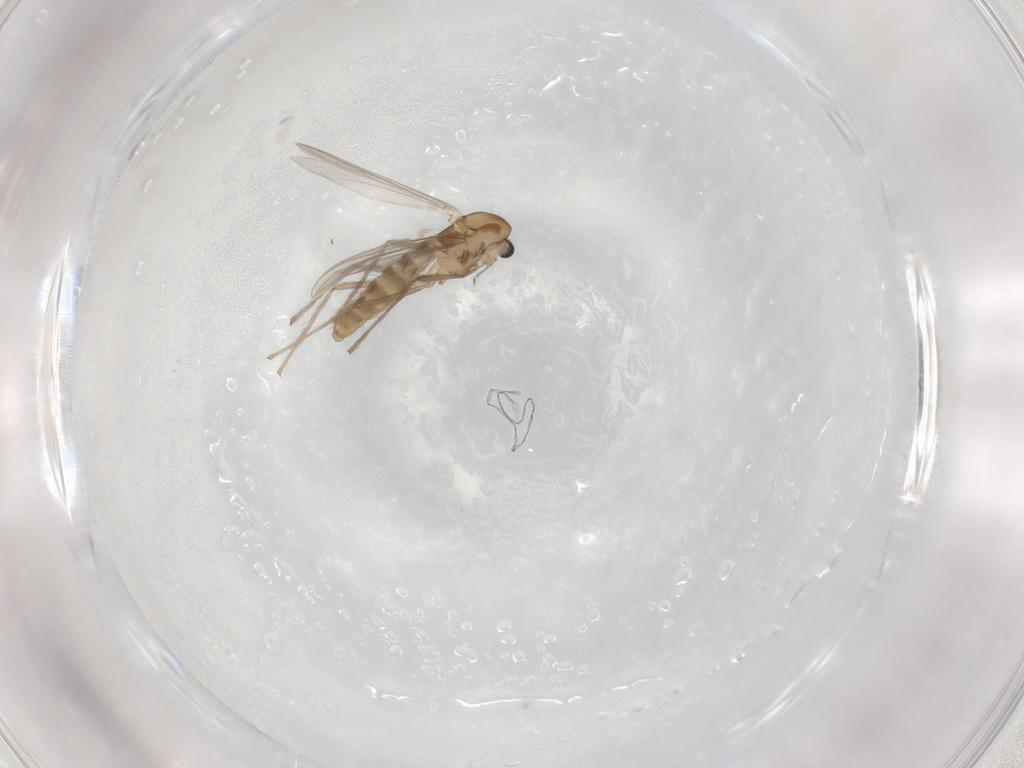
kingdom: Animalia
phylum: Arthropoda
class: Insecta
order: Diptera
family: Chironomidae
